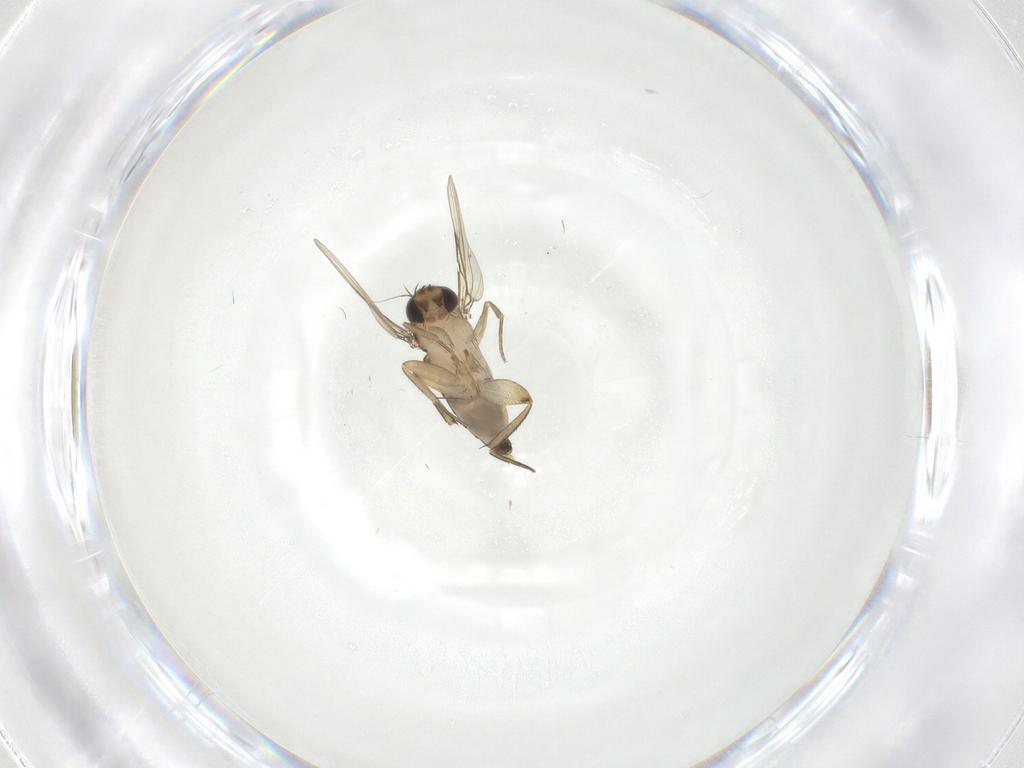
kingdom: Animalia
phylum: Arthropoda
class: Insecta
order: Diptera
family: Phoridae
